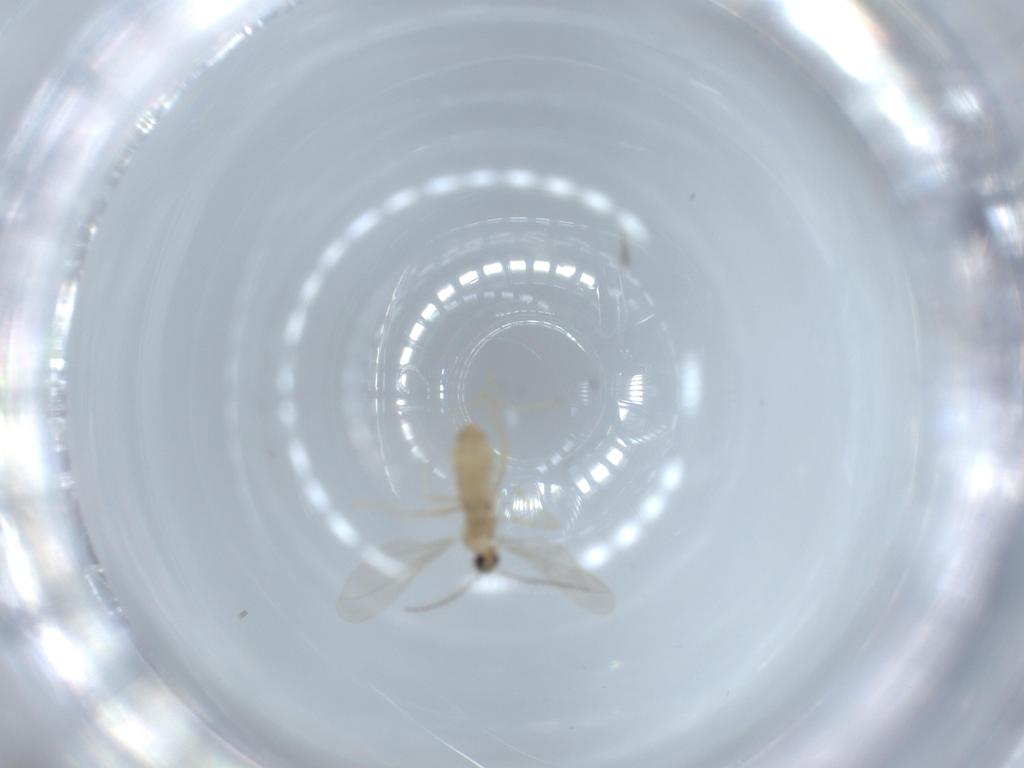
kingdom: Animalia
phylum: Arthropoda
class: Insecta
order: Diptera
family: Cecidomyiidae
